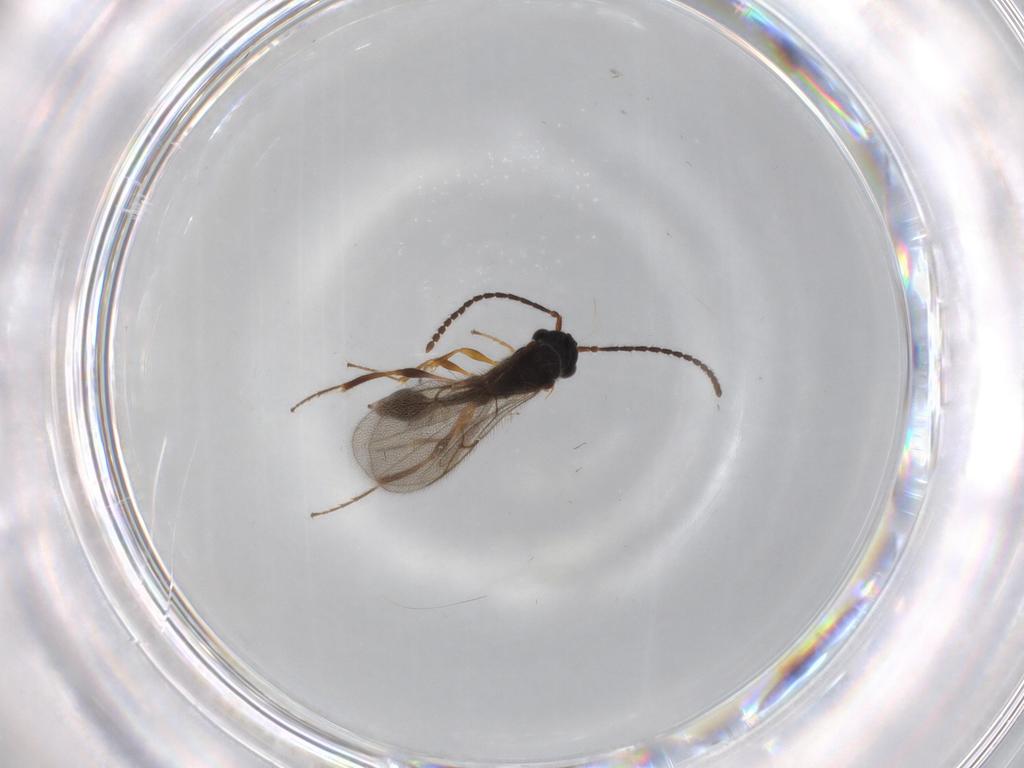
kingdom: Animalia
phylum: Arthropoda
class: Insecta
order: Hymenoptera
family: Diapriidae
